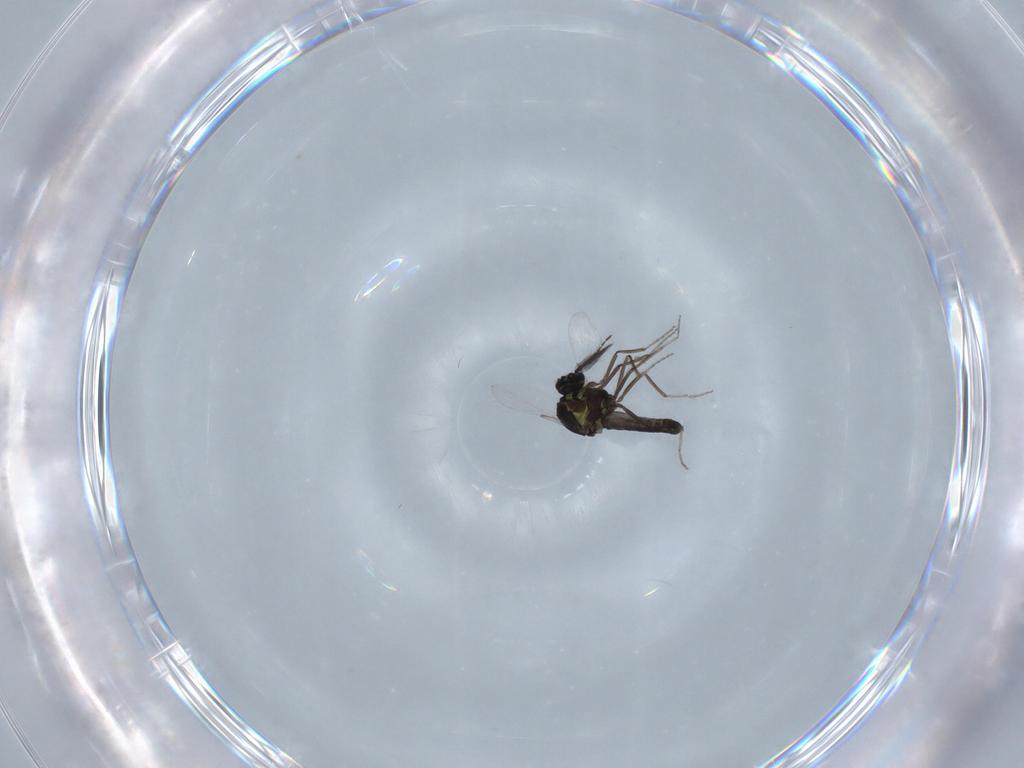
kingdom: Animalia
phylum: Arthropoda
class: Insecta
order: Diptera
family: Ceratopogonidae
